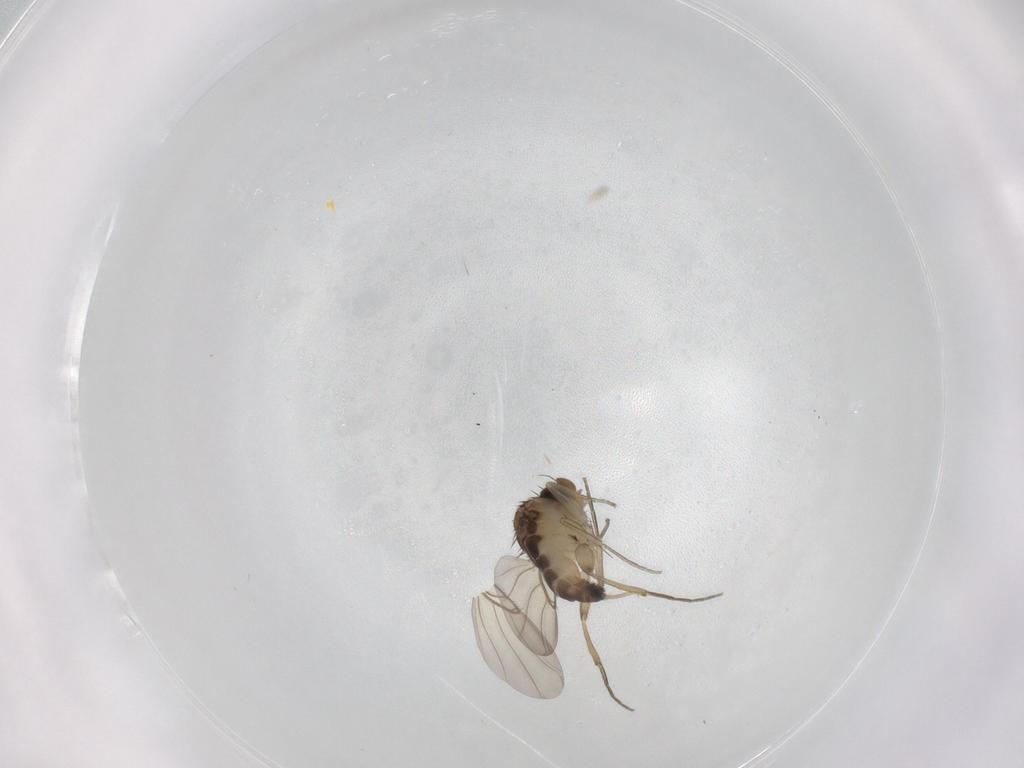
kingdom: Animalia
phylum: Arthropoda
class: Insecta
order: Diptera
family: Phoridae
